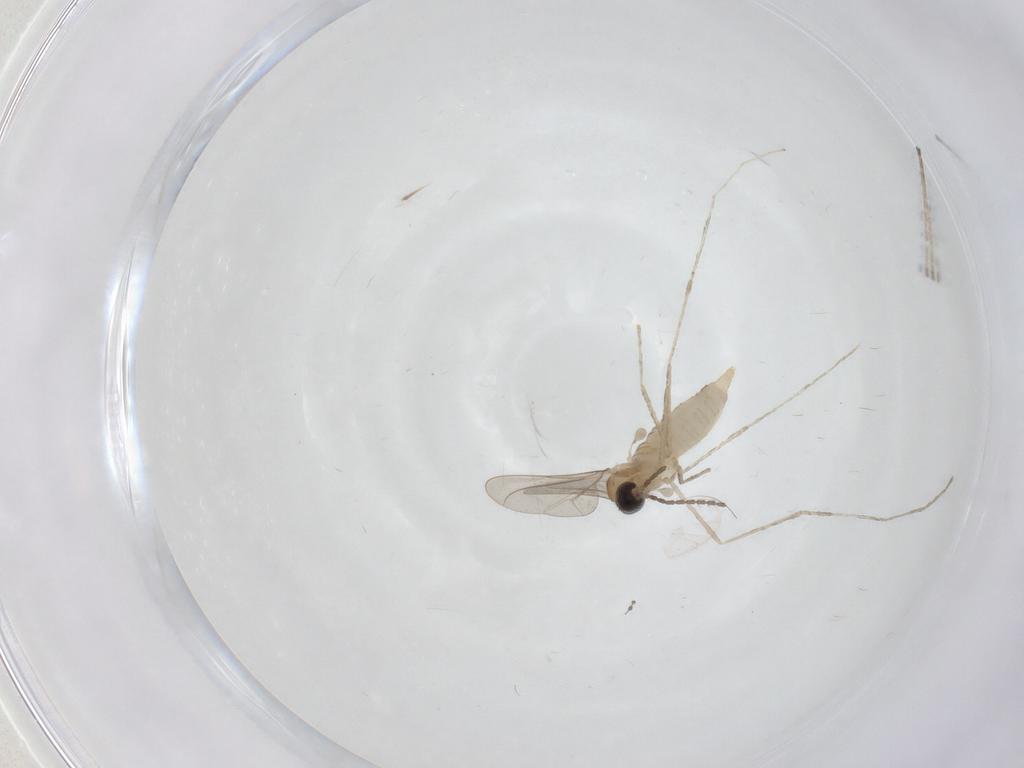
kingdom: Animalia
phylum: Arthropoda
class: Insecta
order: Diptera
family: Cecidomyiidae
